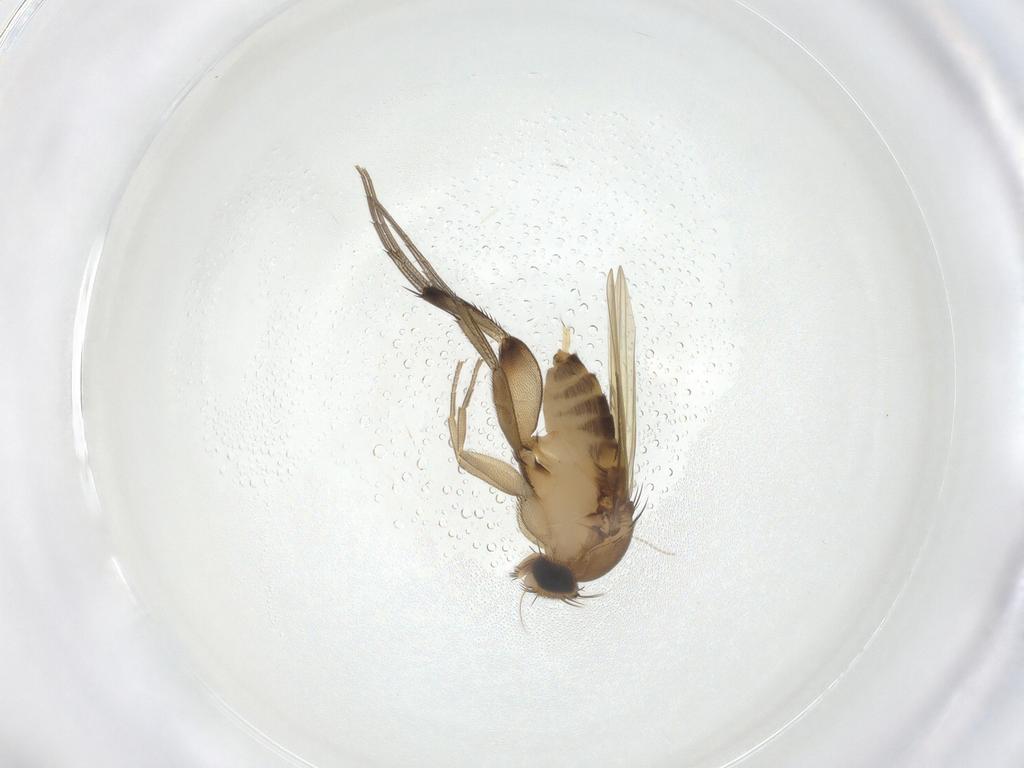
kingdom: Animalia
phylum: Arthropoda
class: Insecta
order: Diptera
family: Phoridae
